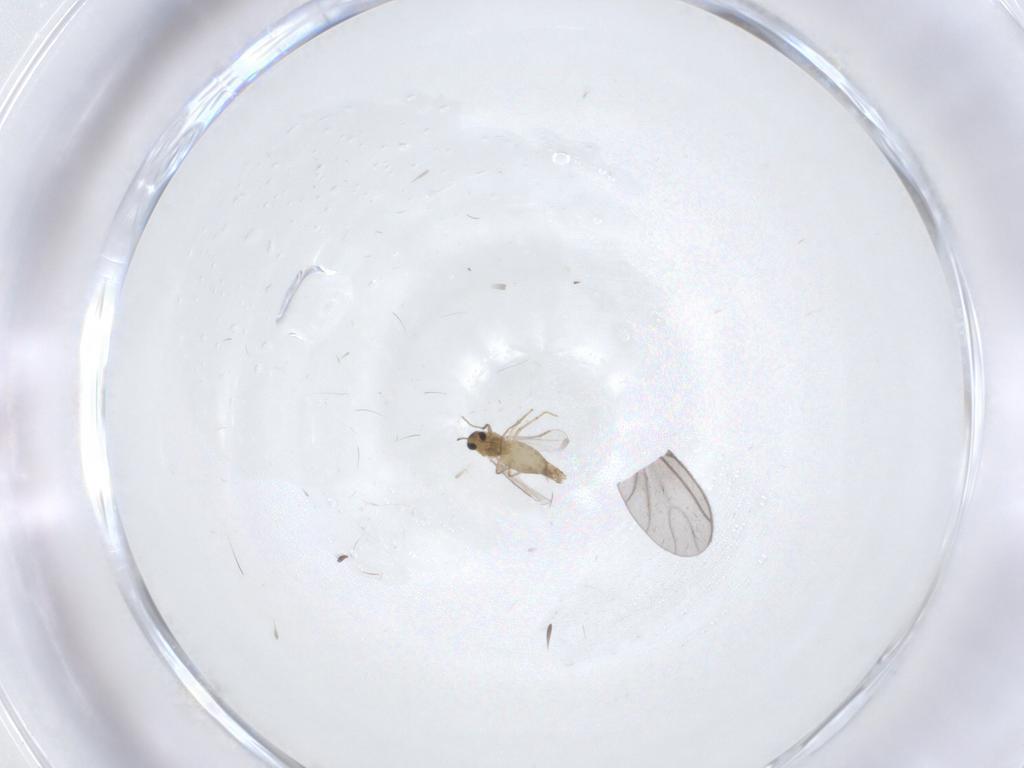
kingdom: Animalia
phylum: Arthropoda
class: Insecta
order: Diptera
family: Sciaridae
